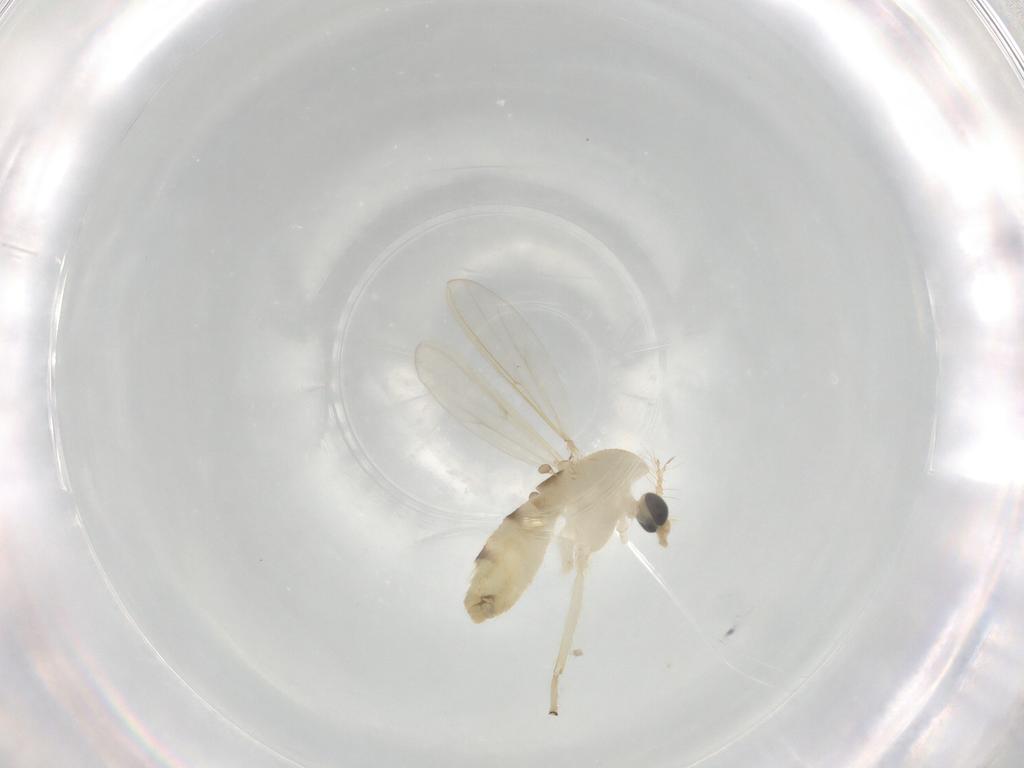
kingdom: Animalia
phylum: Arthropoda
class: Insecta
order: Diptera
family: Chironomidae
